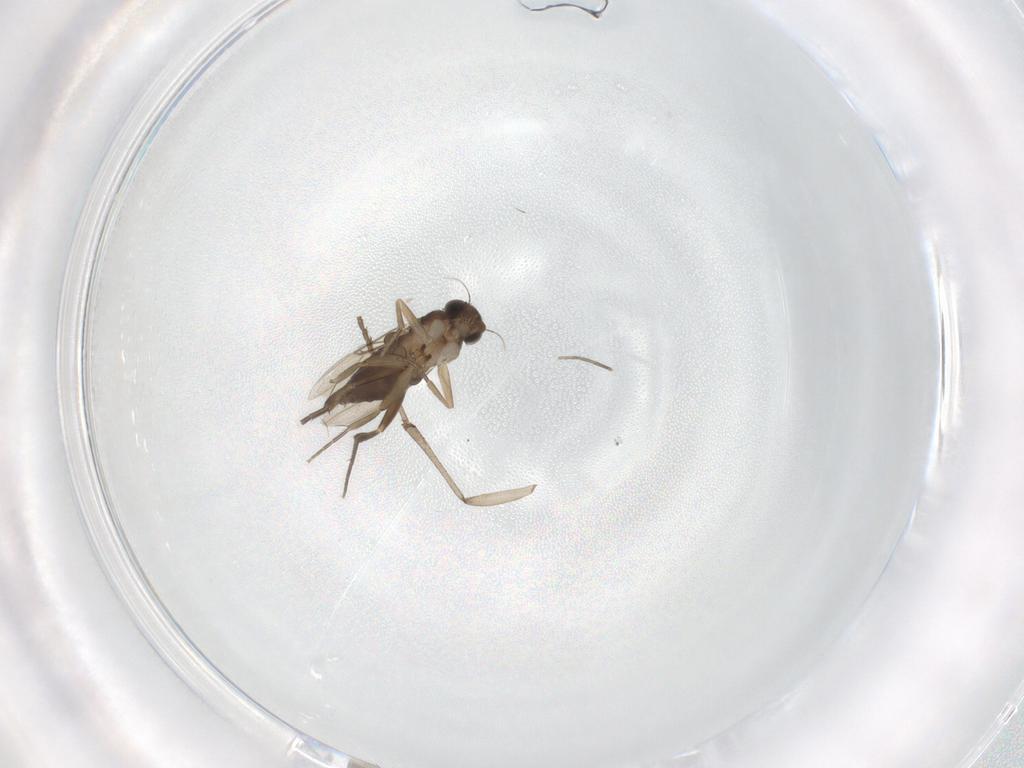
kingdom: Animalia
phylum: Arthropoda
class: Insecta
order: Diptera
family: Phoridae
